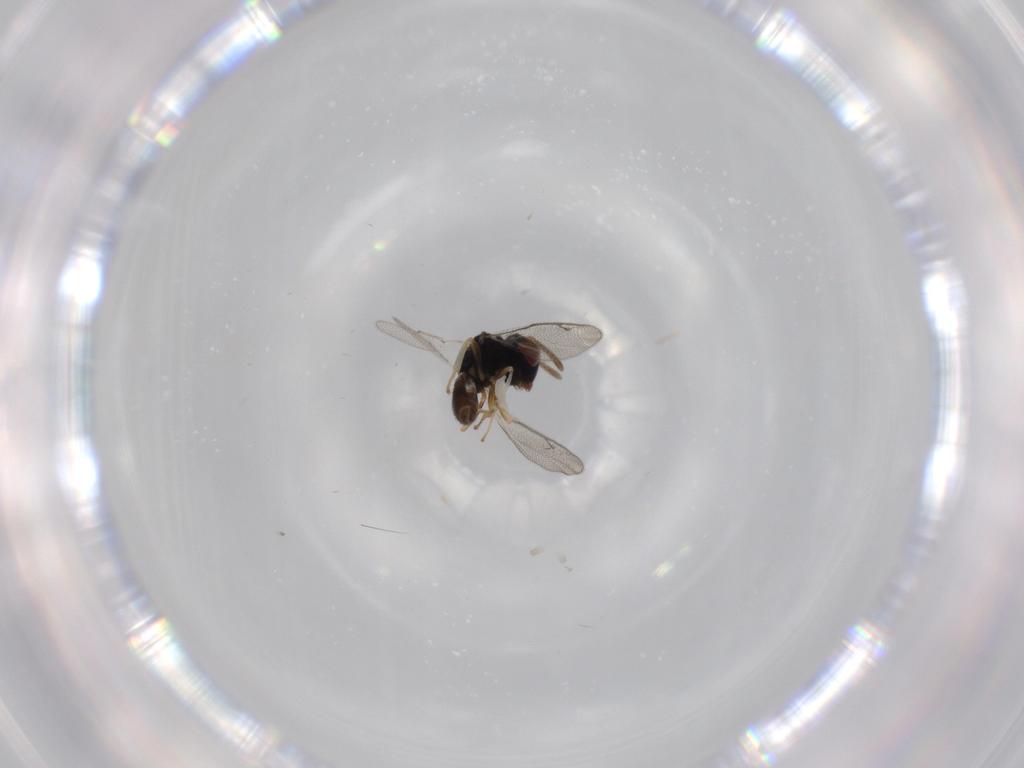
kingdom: Animalia
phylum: Arthropoda
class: Insecta
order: Hymenoptera
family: Pteromalidae
